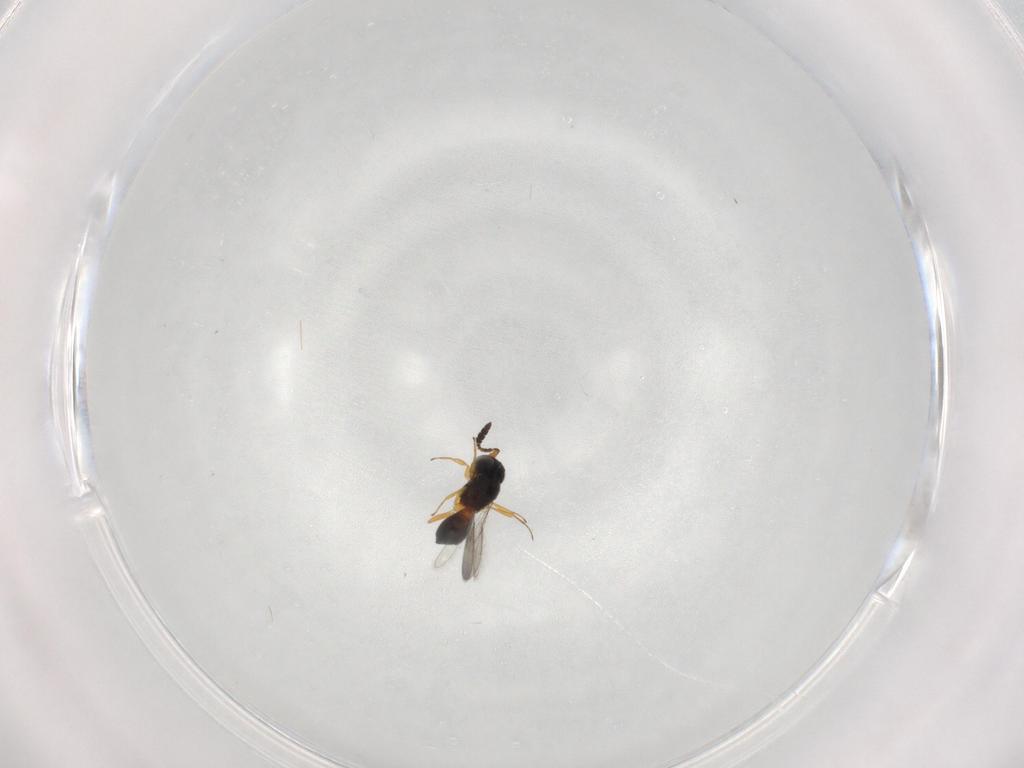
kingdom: Animalia
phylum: Arthropoda
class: Insecta
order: Hymenoptera
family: Scelionidae
